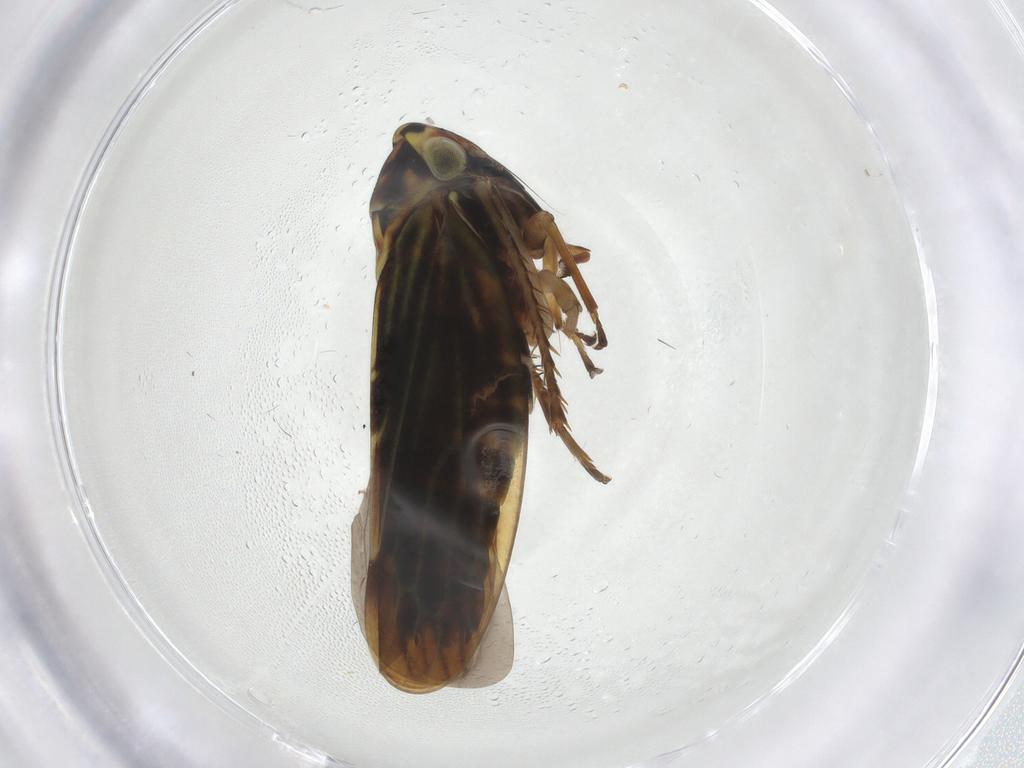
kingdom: Animalia
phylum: Arthropoda
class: Insecta
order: Hemiptera
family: Cicadellidae
